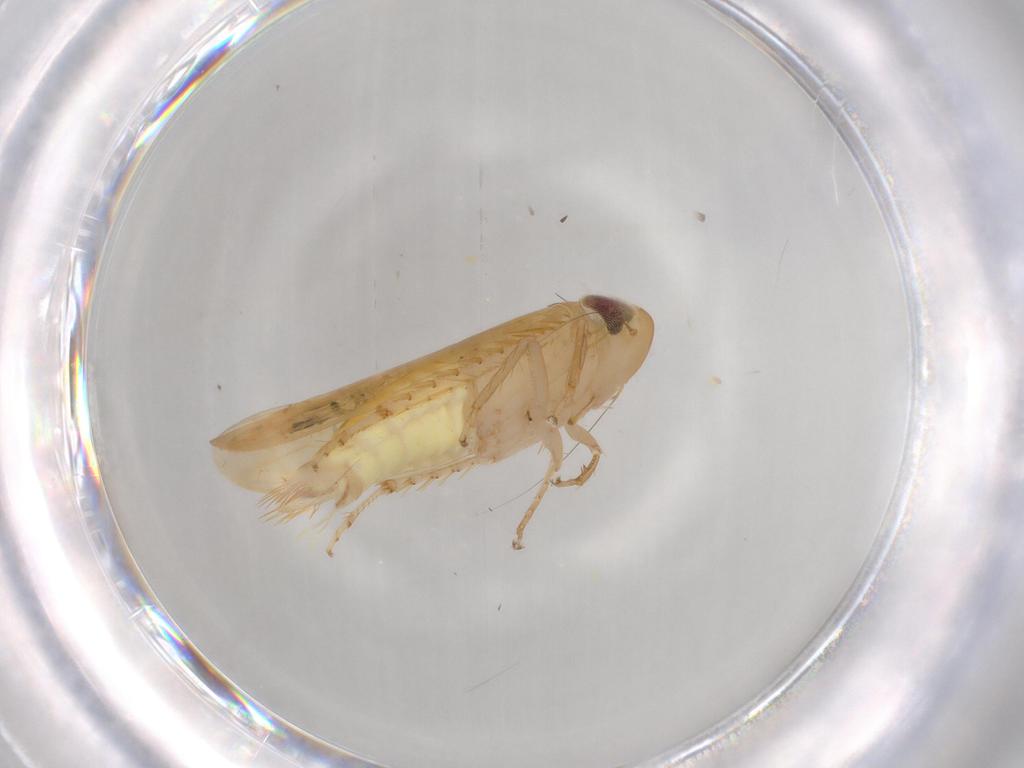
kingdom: Animalia
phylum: Arthropoda
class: Insecta
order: Hemiptera
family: Cicadellidae
